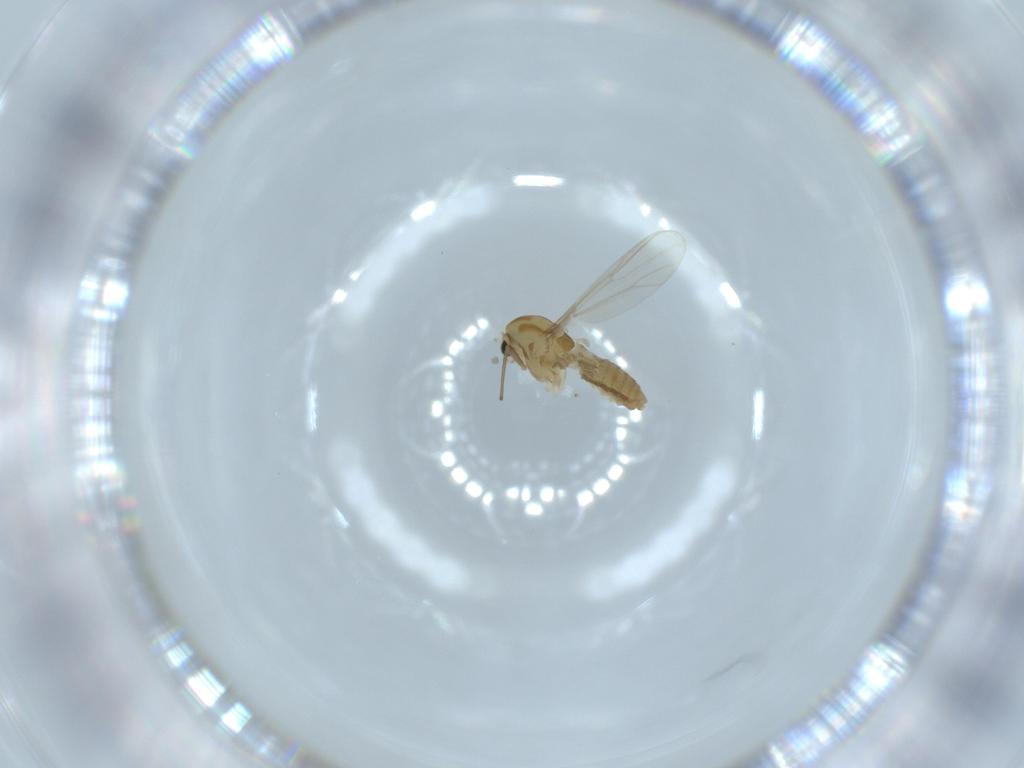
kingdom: Animalia
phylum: Arthropoda
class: Insecta
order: Diptera
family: Chironomidae
